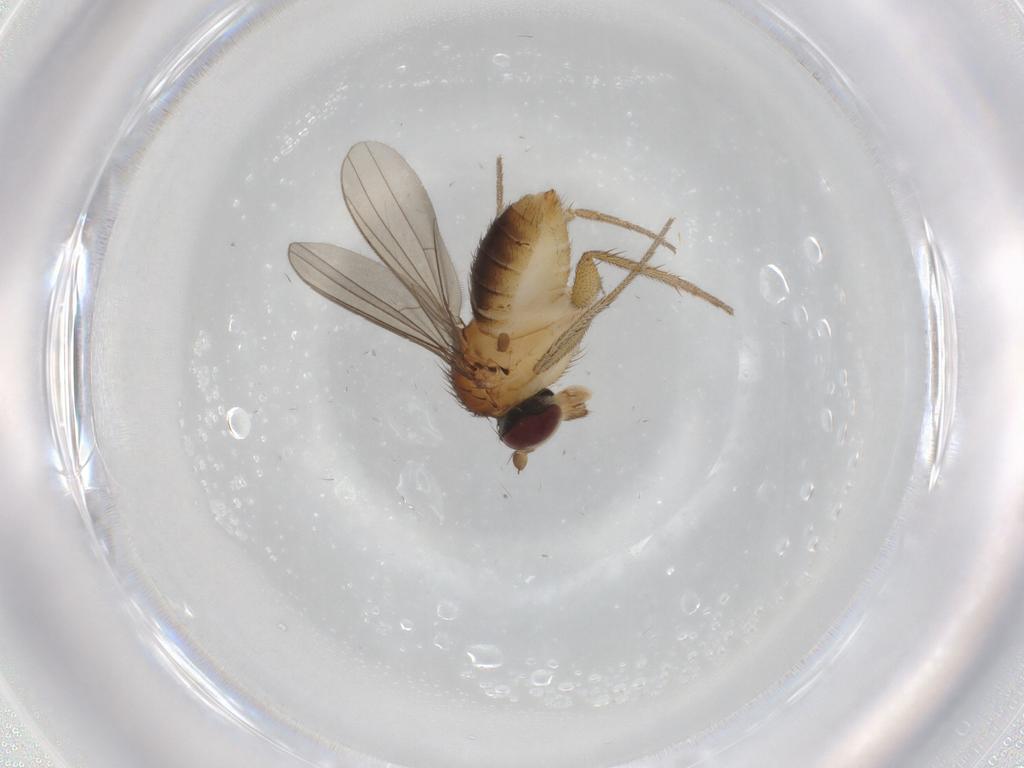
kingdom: Animalia
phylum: Arthropoda
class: Insecta
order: Diptera
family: Dolichopodidae
